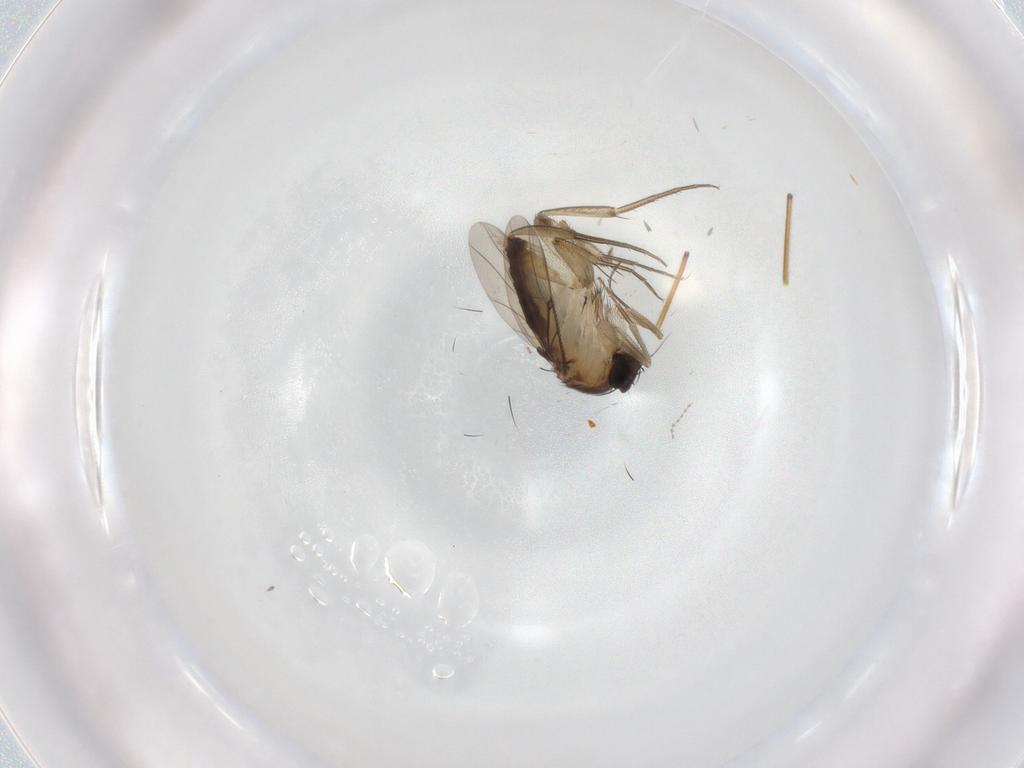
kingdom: Animalia
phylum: Arthropoda
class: Insecta
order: Diptera
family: Phoridae
